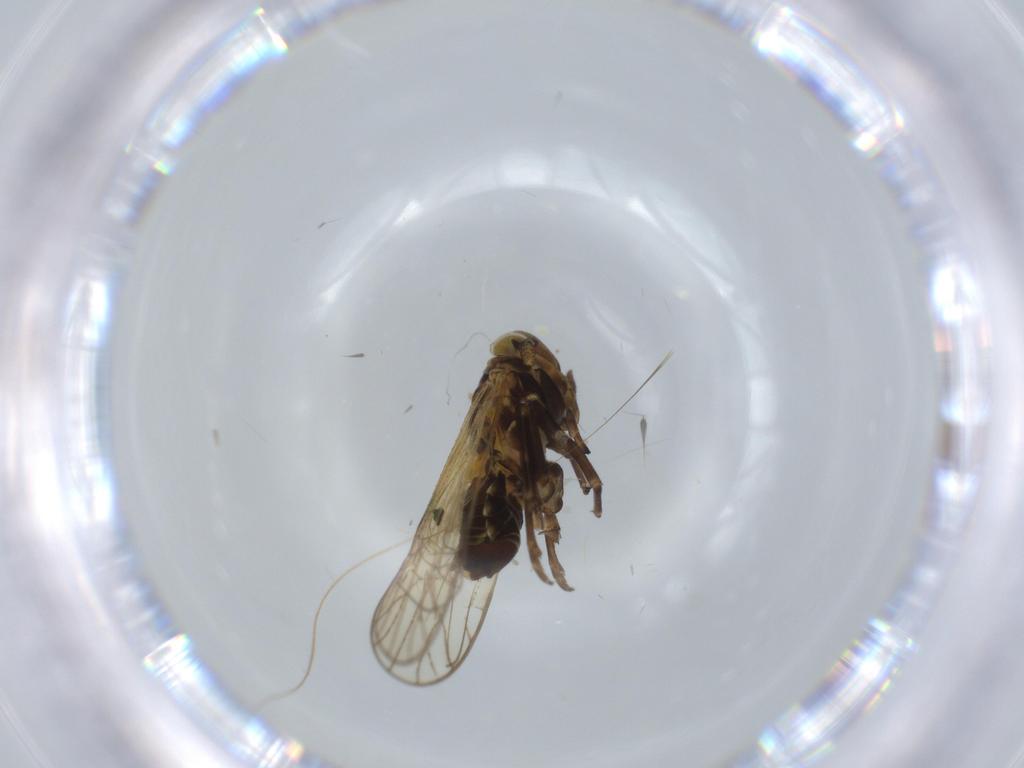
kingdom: Animalia
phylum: Arthropoda
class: Insecta
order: Hemiptera
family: Delphacidae
